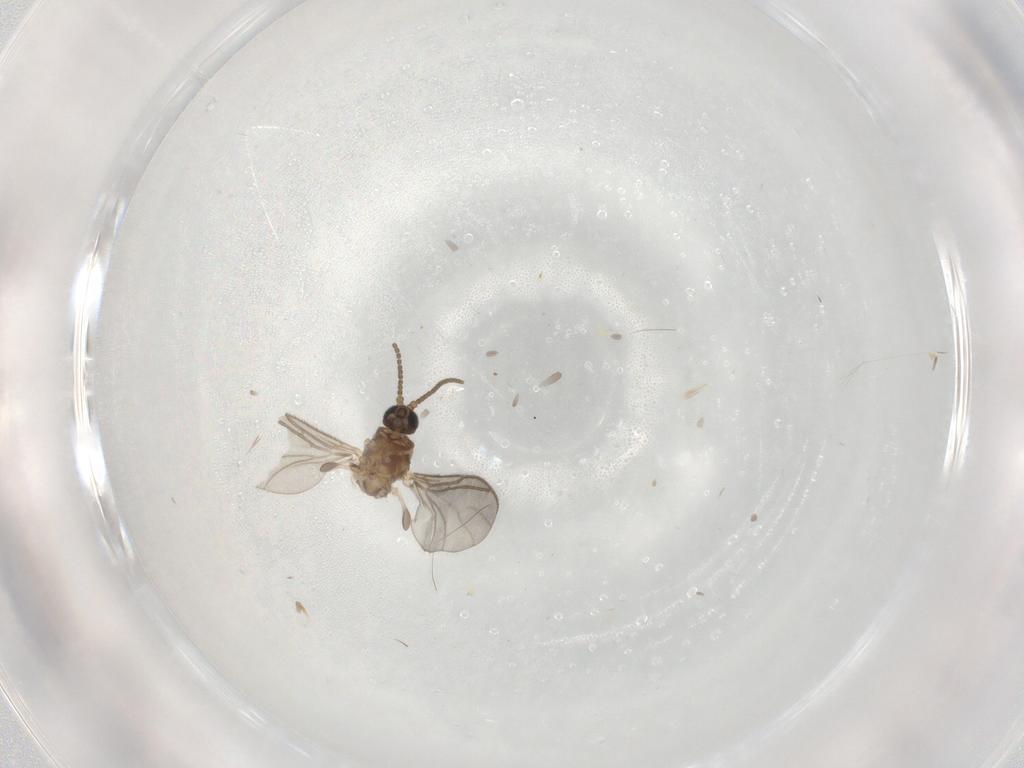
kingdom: Animalia
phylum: Arthropoda
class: Insecta
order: Diptera
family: Sciaridae
